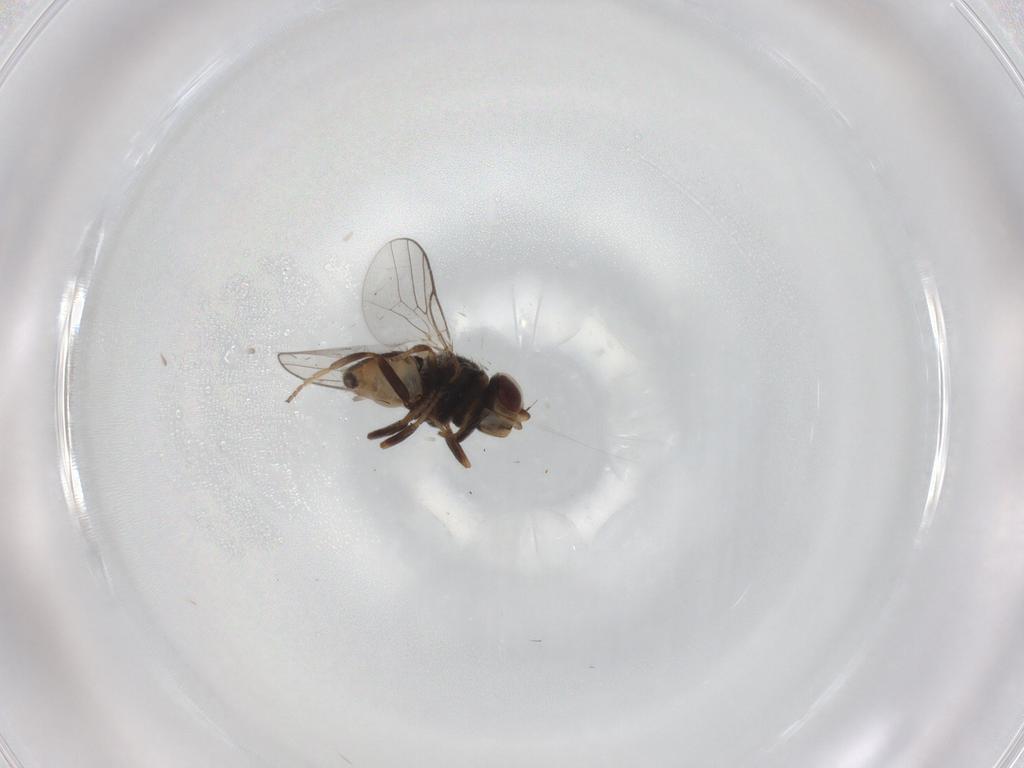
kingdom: Animalia
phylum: Arthropoda
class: Insecta
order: Diptera
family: Chloropidae
